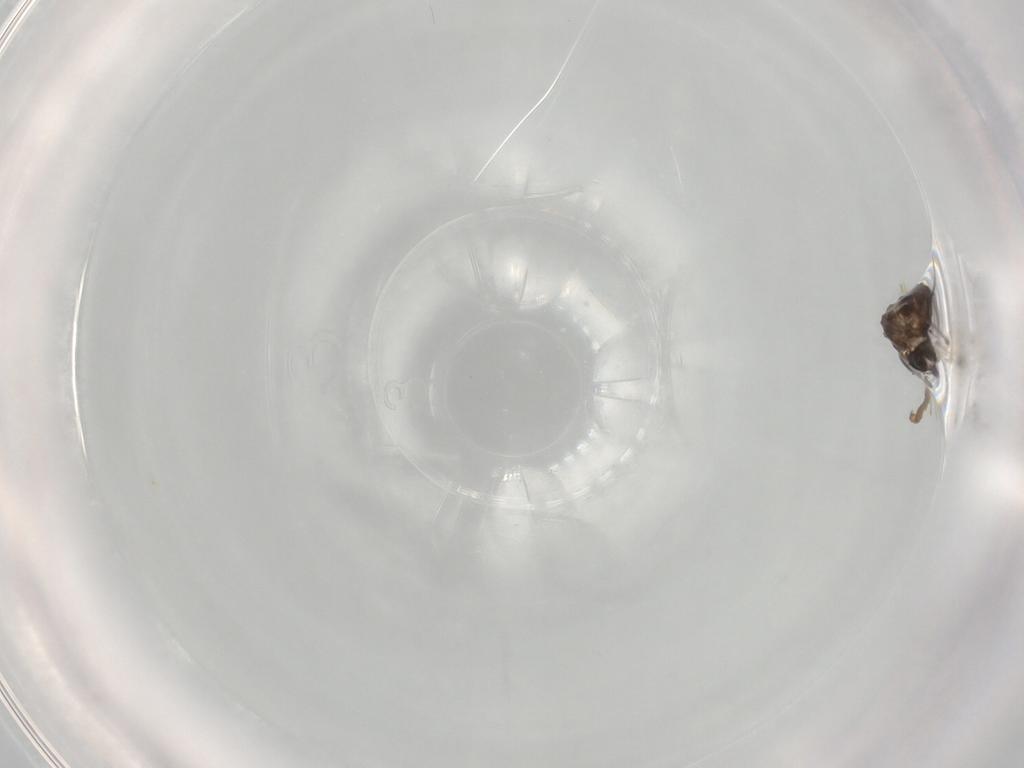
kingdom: Animalia
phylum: Arthropoda
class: Insecta
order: Diptera
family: Chironomidae
